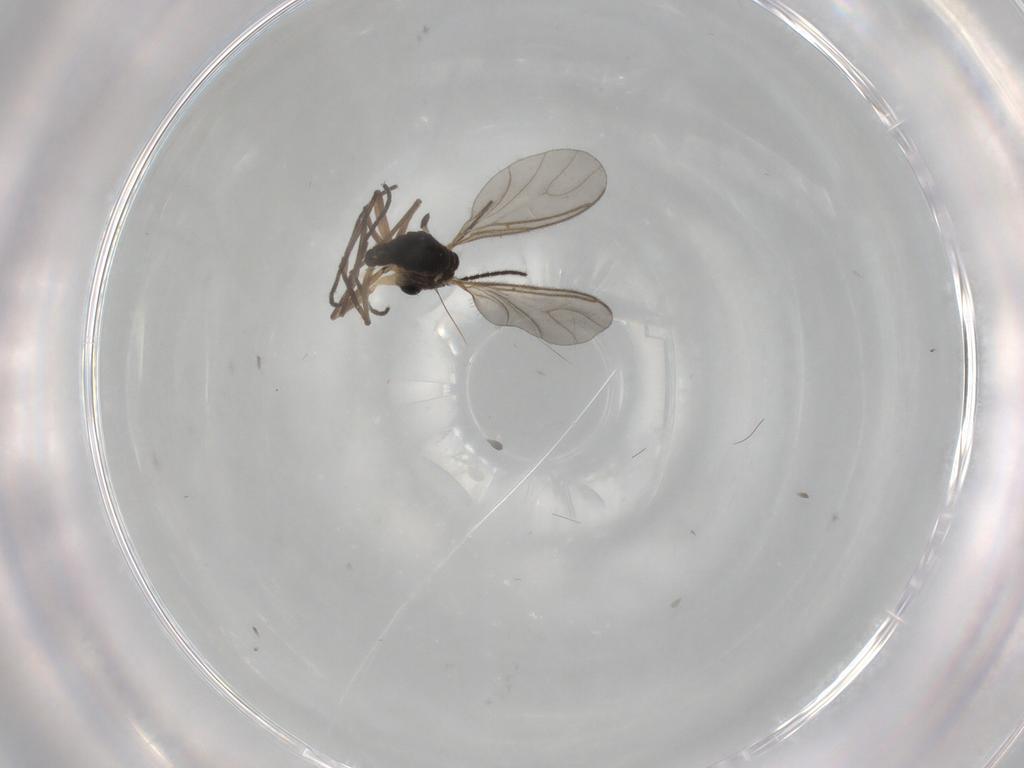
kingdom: Animalia
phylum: Arthropoda
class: Insecta
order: Diptera
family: Sciaridae
